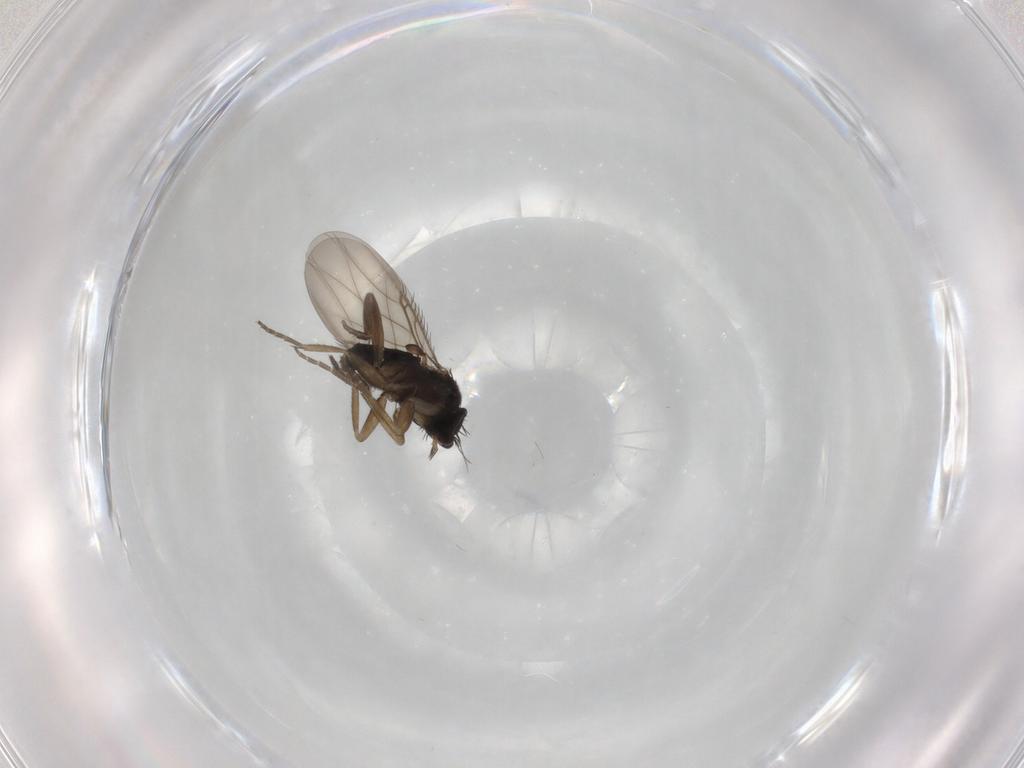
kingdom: Animalia
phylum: Arthropoda
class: Insecta
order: Diptera
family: Phoridae
